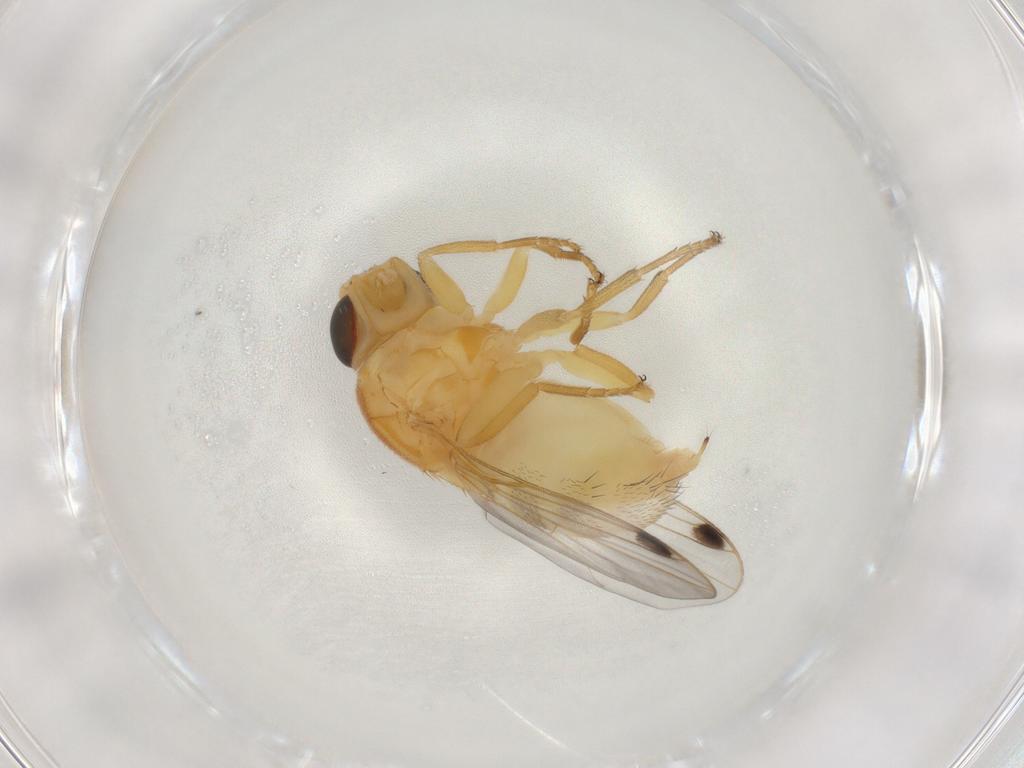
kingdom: Animalia
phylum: Arthropoda
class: Insecta
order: Diptera
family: Chloropidae
